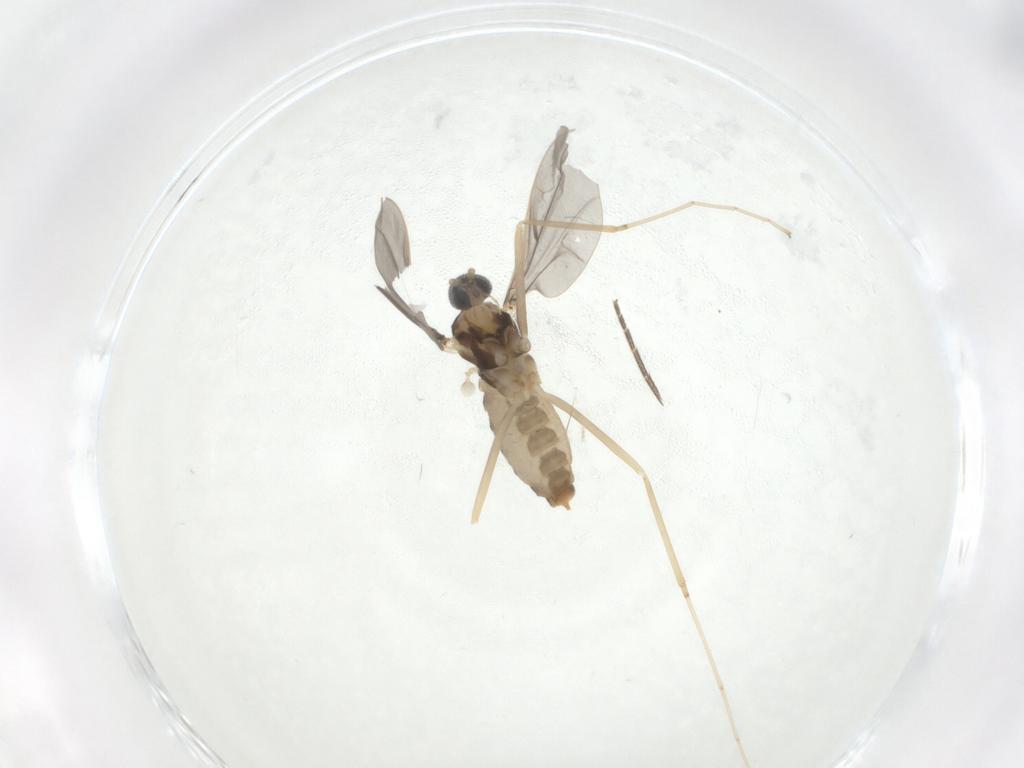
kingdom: Animalia
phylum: Arthropoda
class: Insecta
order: Diptera
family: Cecidomyiidae
